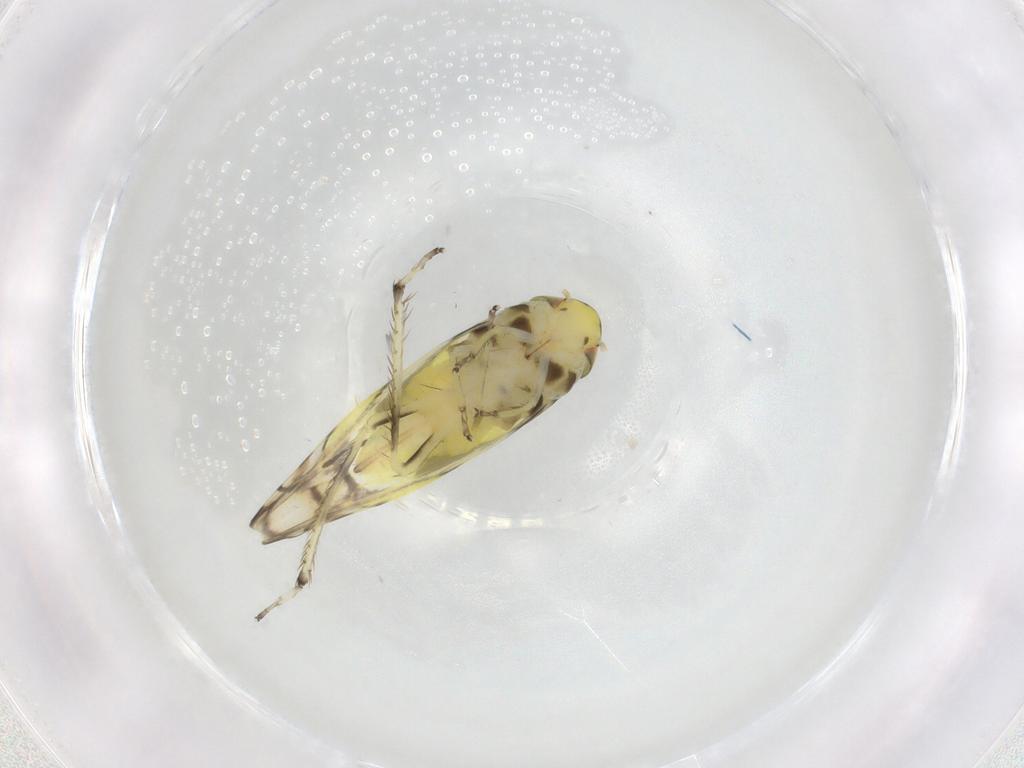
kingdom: Animalia
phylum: Arthropoda
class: Insecta
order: Hemiptera
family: Cicadellidae
